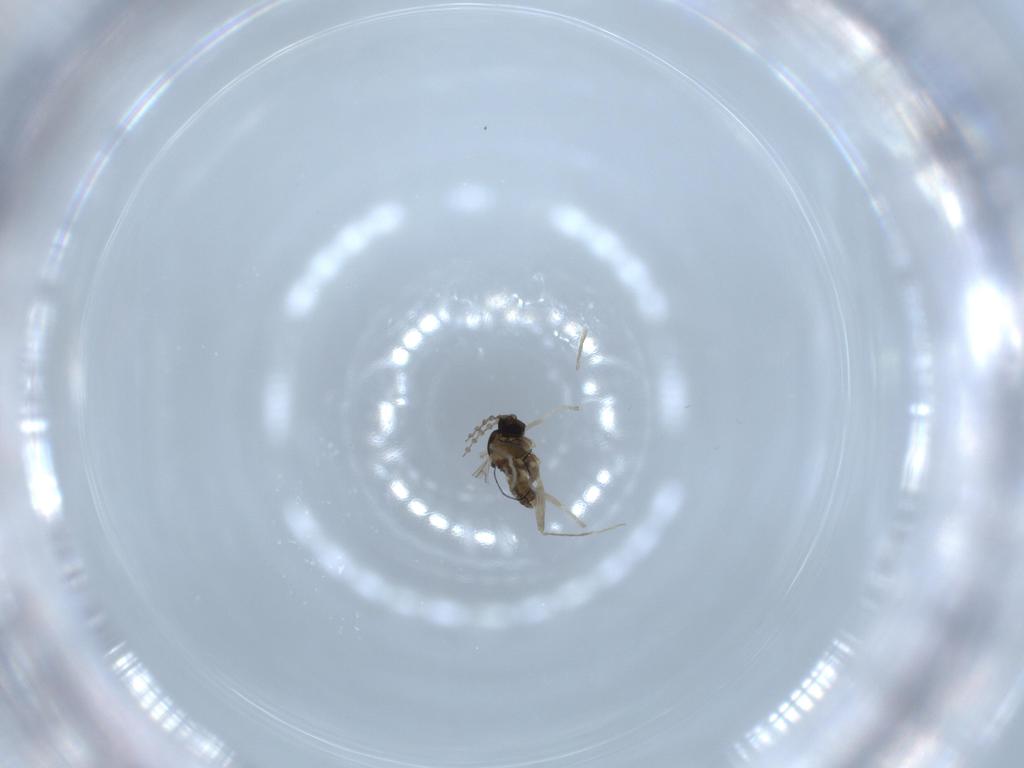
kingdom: Animalia
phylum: Arthropoda
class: Insecta
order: Diptera
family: Cecidomyiidae
